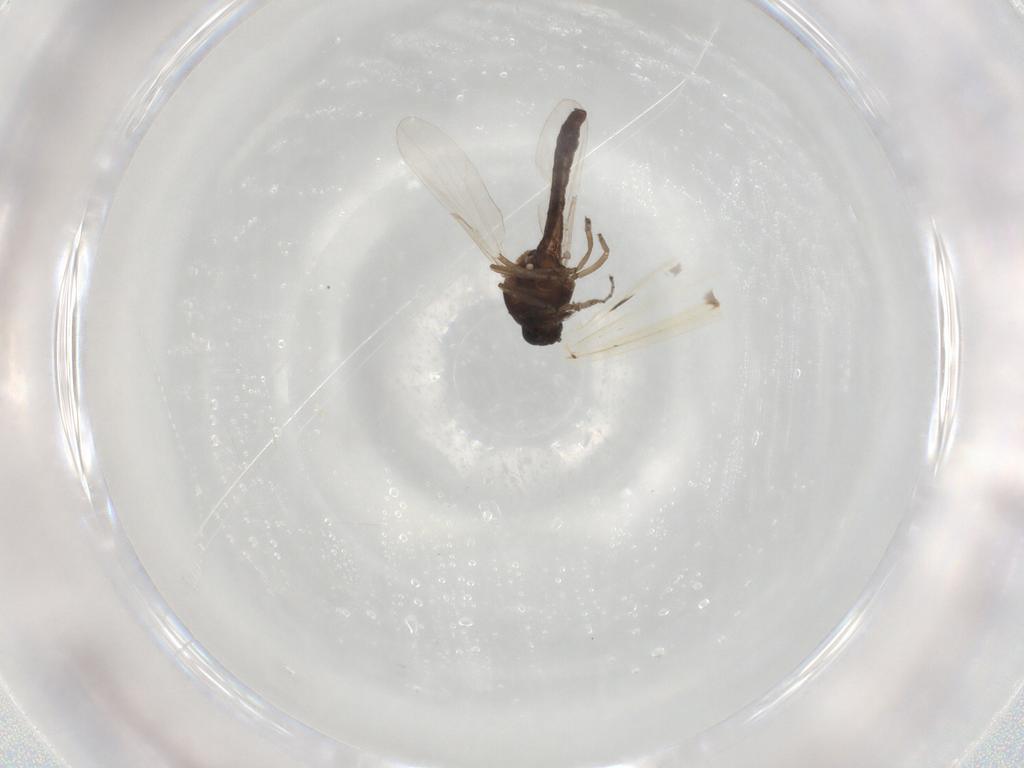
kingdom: Animalia
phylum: Arthropoda
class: Insecta
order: Diptera
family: Ceratopogonidae
